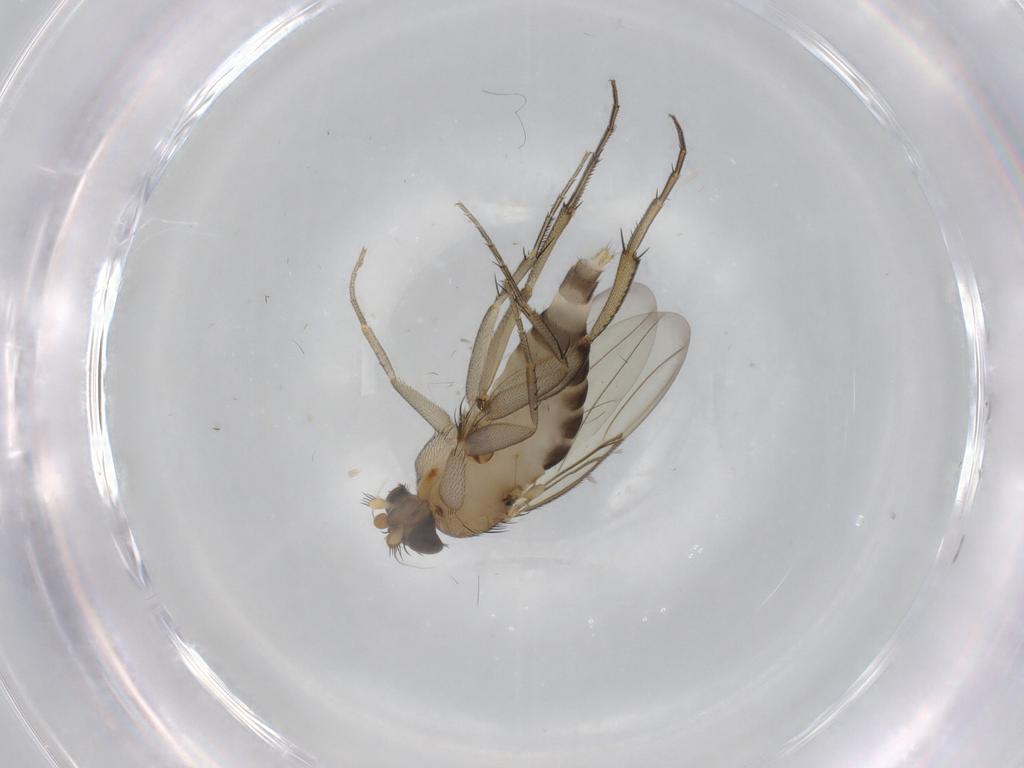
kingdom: Animalia
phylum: Arthropoda
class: Insecta
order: Diptera
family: Phoridae
